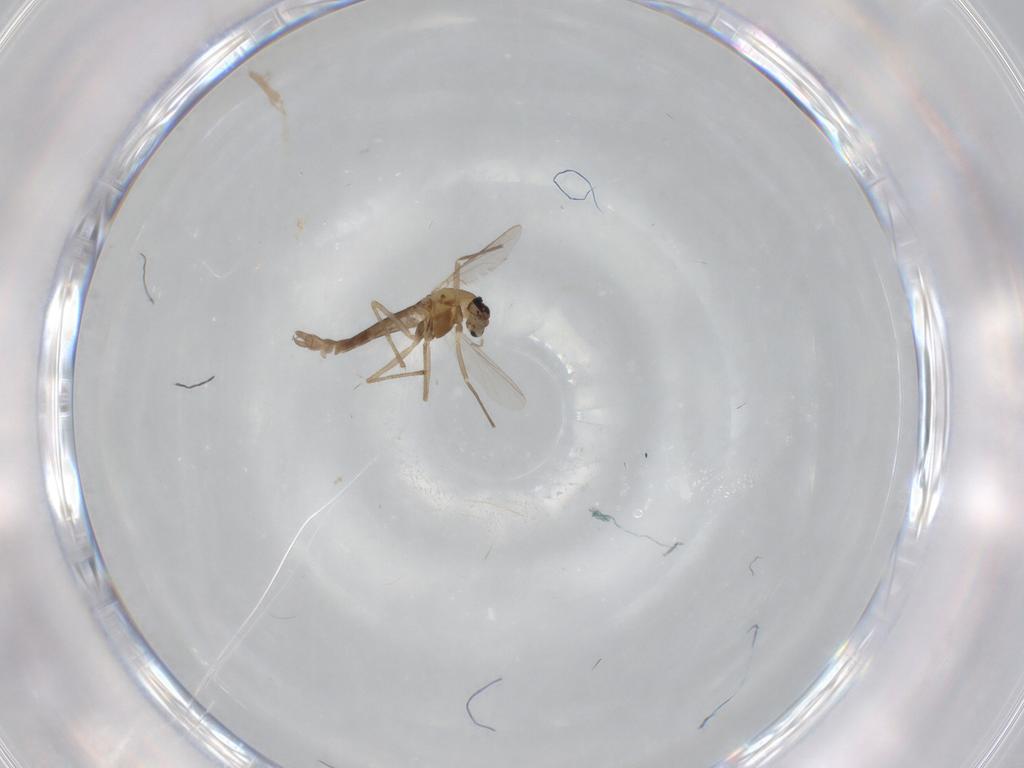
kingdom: Animalia
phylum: Arthropoda
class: Insecta
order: Diptera
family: Chironomidae
